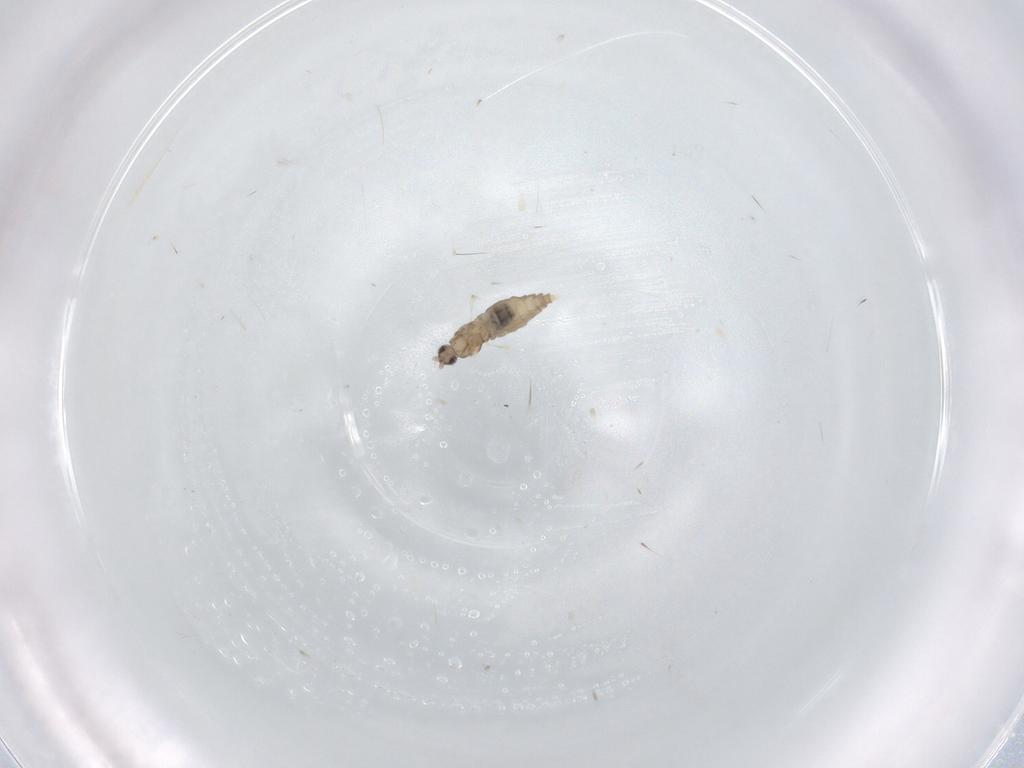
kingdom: Animalia
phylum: Arthropoda
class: Insecta
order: Diptera
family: Cecidomyiidae
